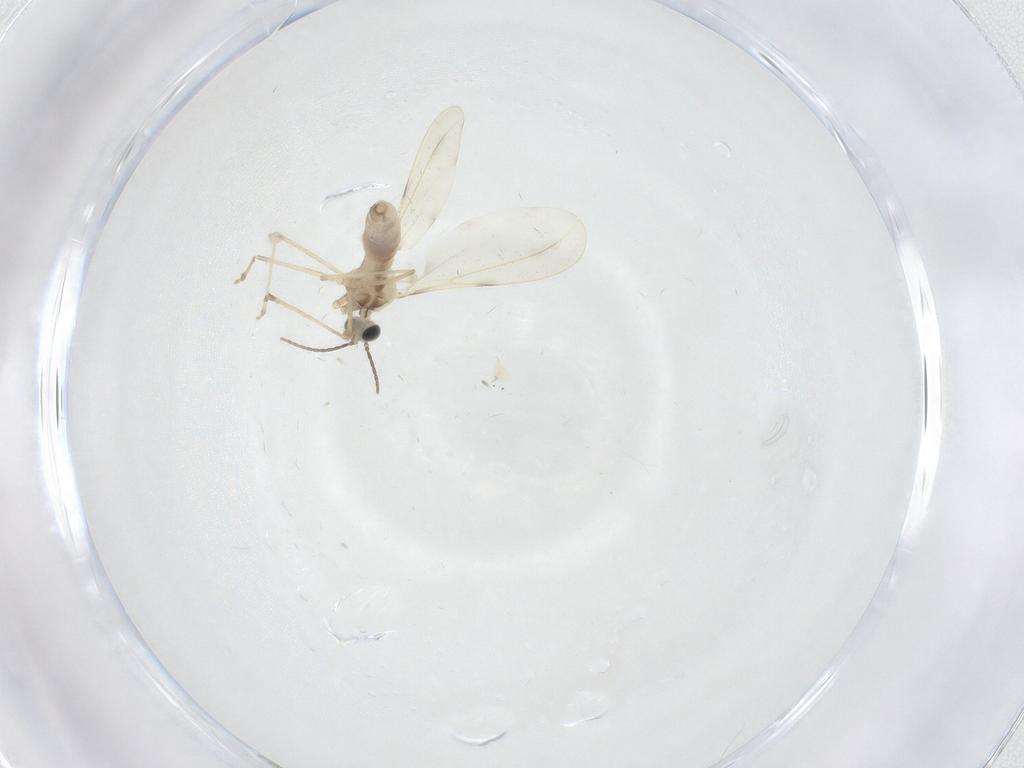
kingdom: Animalia
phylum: Arthropoda
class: Insecta
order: Diptera
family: Cecidomyiidae
